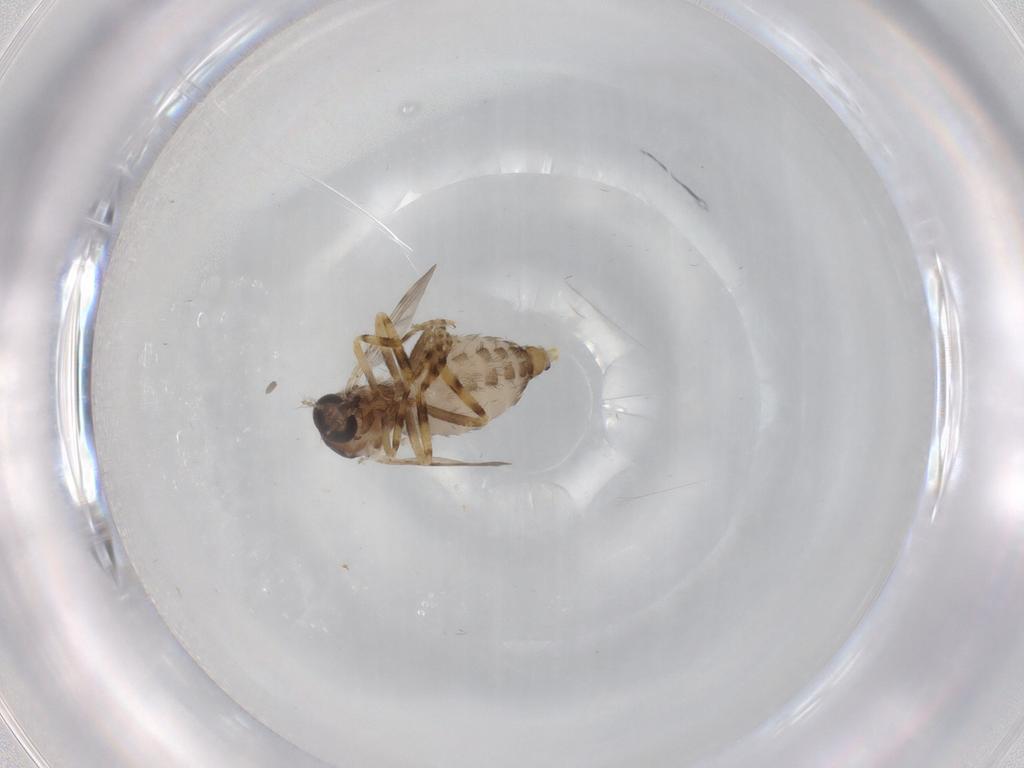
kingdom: Animalia
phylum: Arthropoda
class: Insecta
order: Diptera
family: Ceratopogonidae
